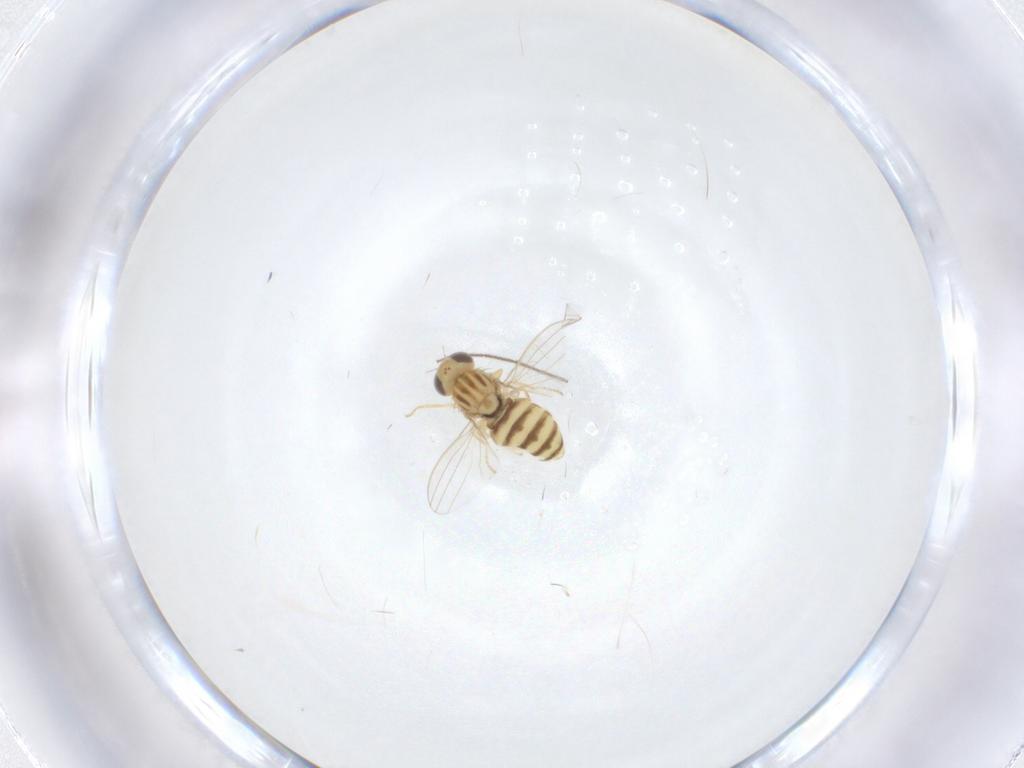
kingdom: Animalia
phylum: Arthropoda
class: Insecta
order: Diptera
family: Chyromyidae
